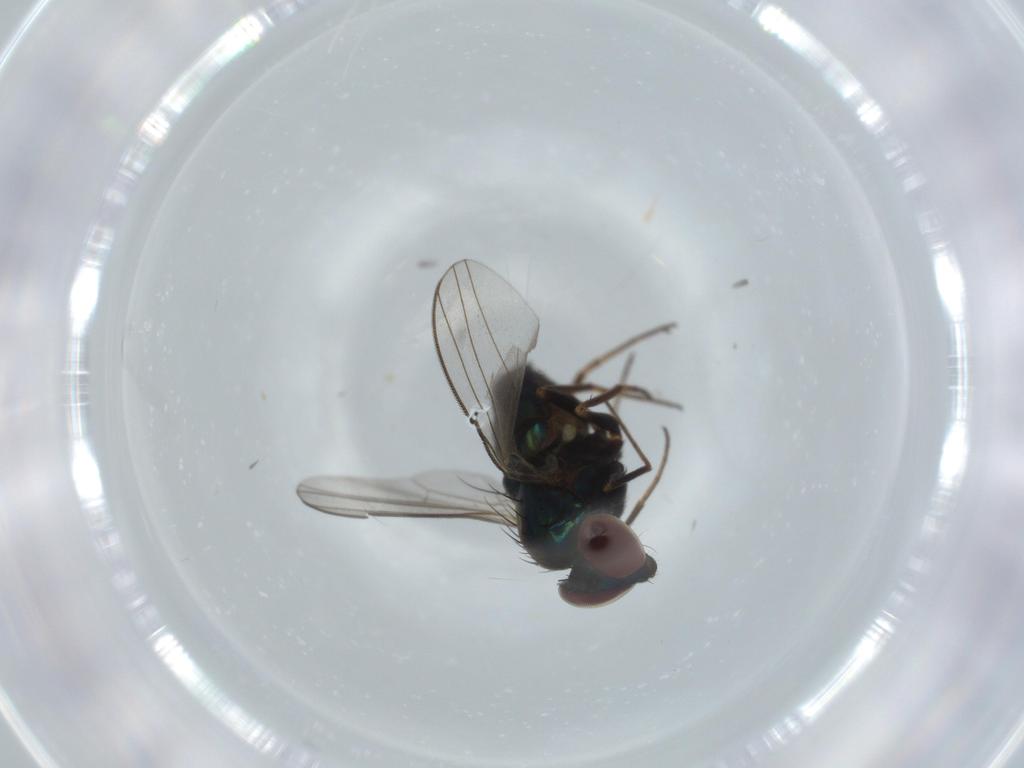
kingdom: Animalia
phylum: Arthropoda
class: Insecta
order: Diptera
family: Dolichopodidae
